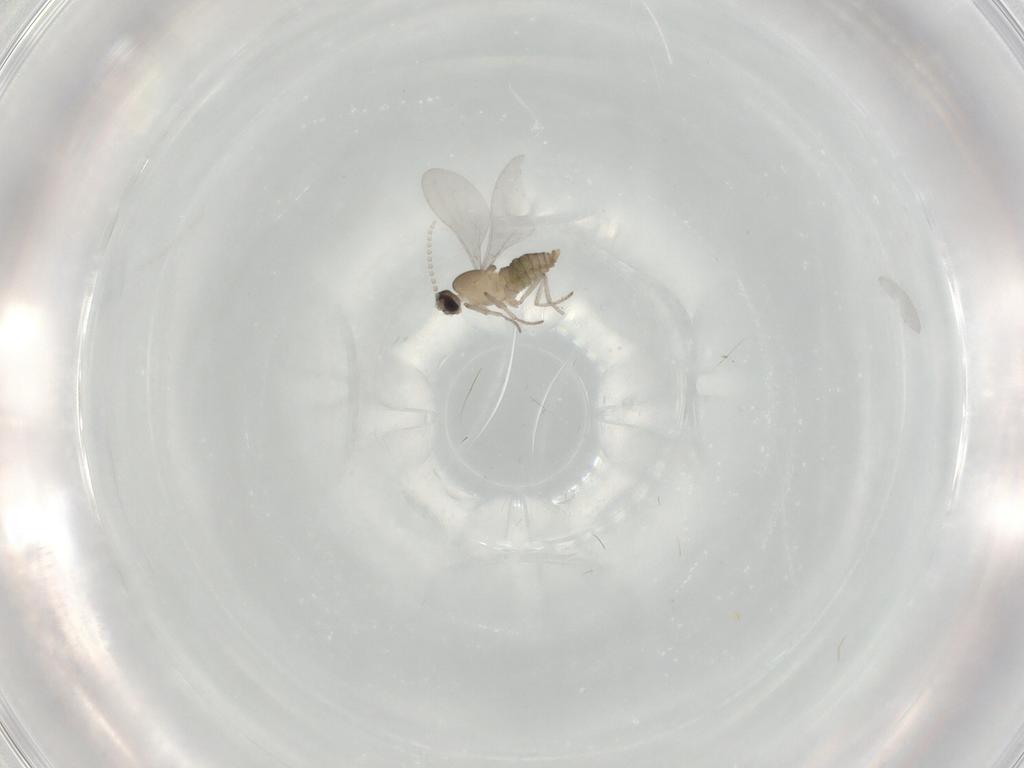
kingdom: Animalia
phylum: Arthropoda
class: Insecta
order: Diptera
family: Cecidomyiidae
